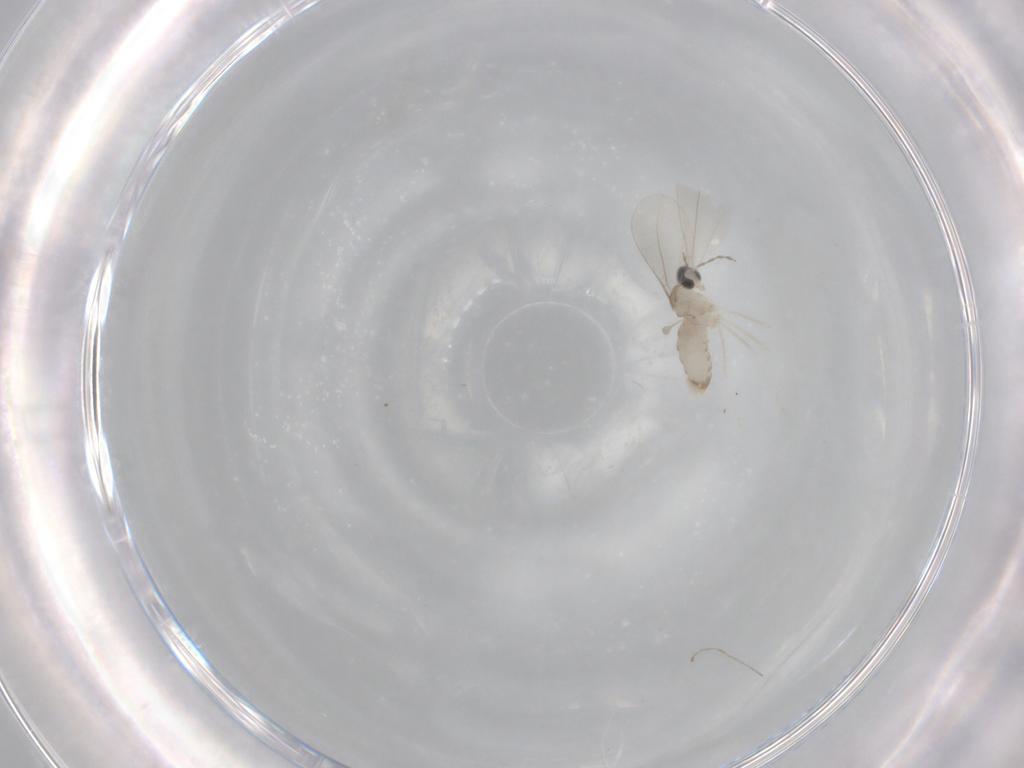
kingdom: Animalia
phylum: Arthropoda
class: Insecta
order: Diptera
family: Cecidomyiidae
